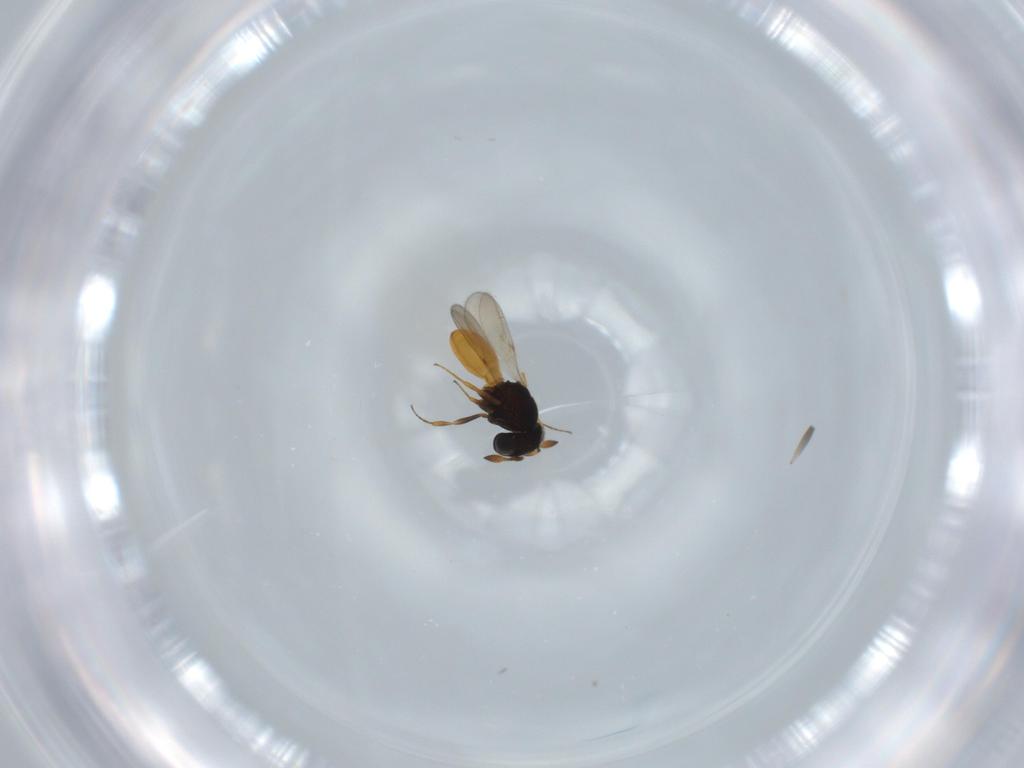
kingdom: Animalia
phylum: Arthropoda
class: Insecta
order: Hymenoptera
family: Scelionidae
